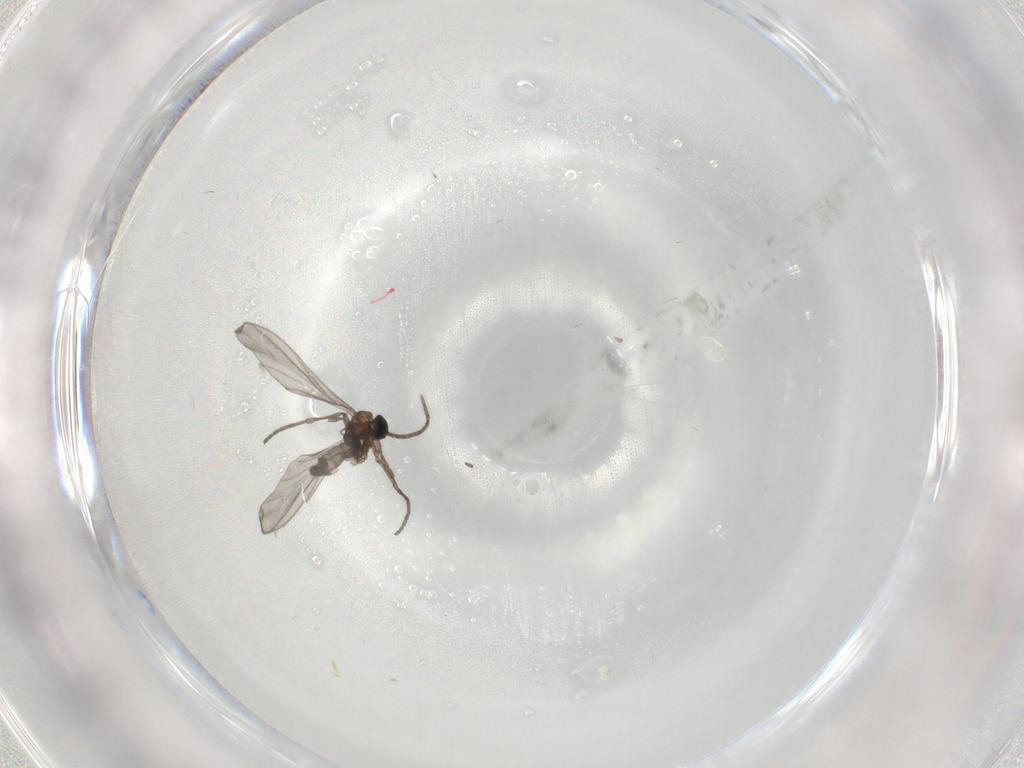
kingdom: Animalia
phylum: Arthropoda
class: Insecta
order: Diptera
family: Sciaridae
